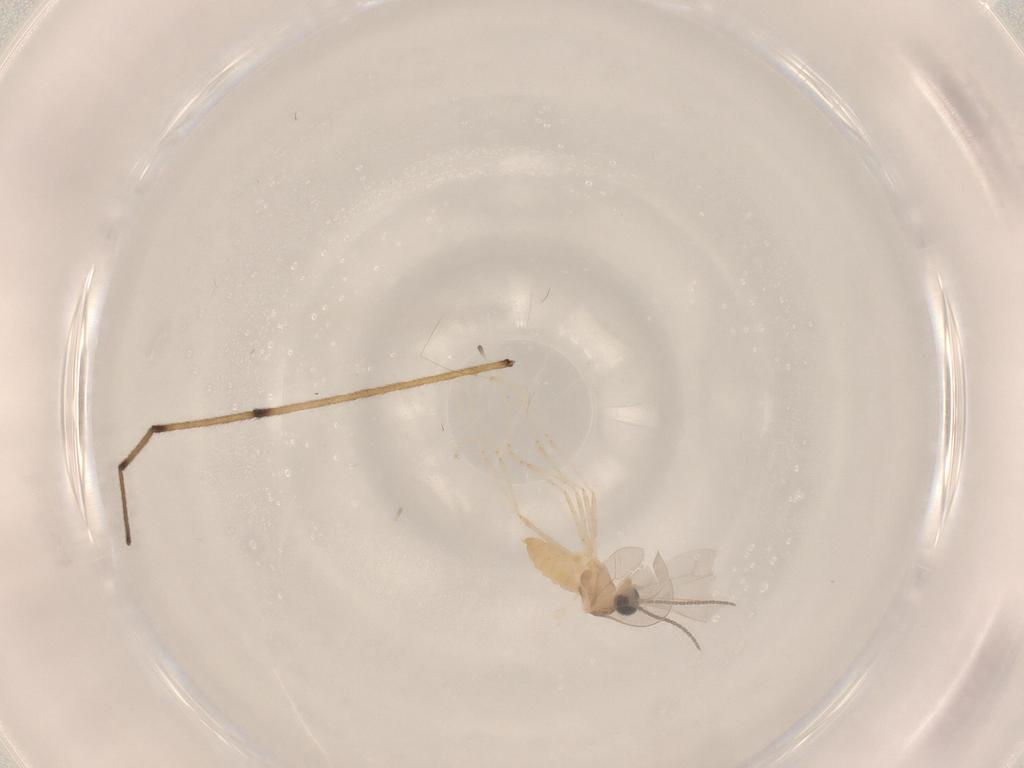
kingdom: Animalia
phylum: Arthropoda
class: Insecta
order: Diptera
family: Cecidomyiidae
